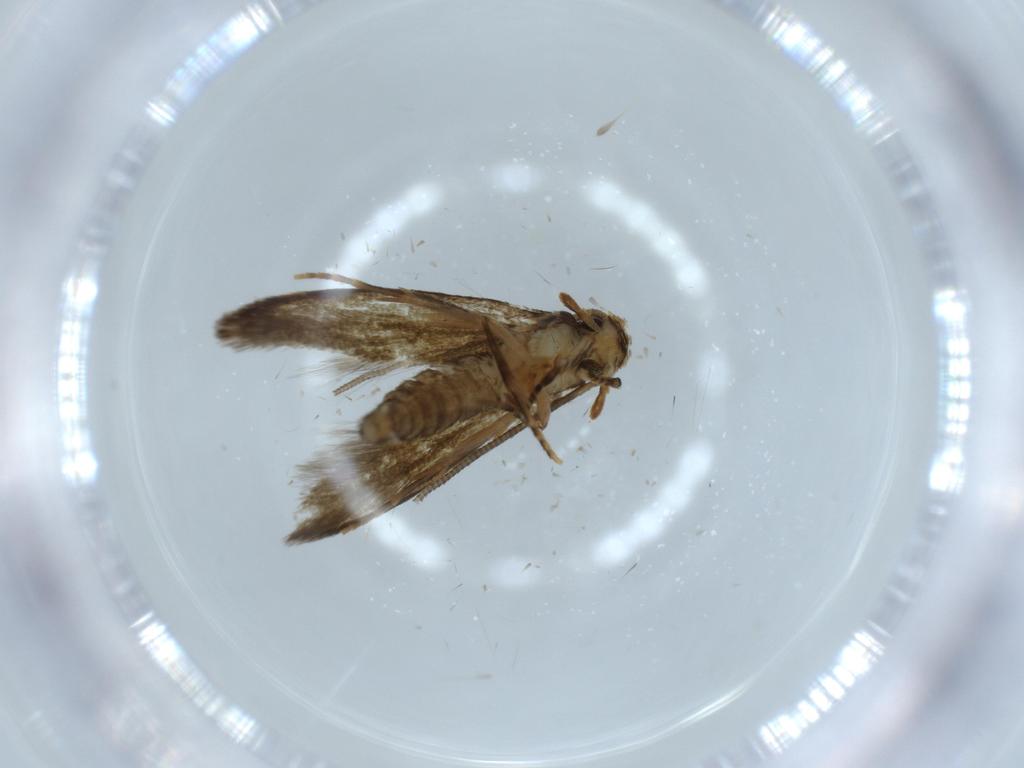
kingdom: Animalia
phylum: Arthropoda
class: Insecta
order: Lepidoptera
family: Tineidae
